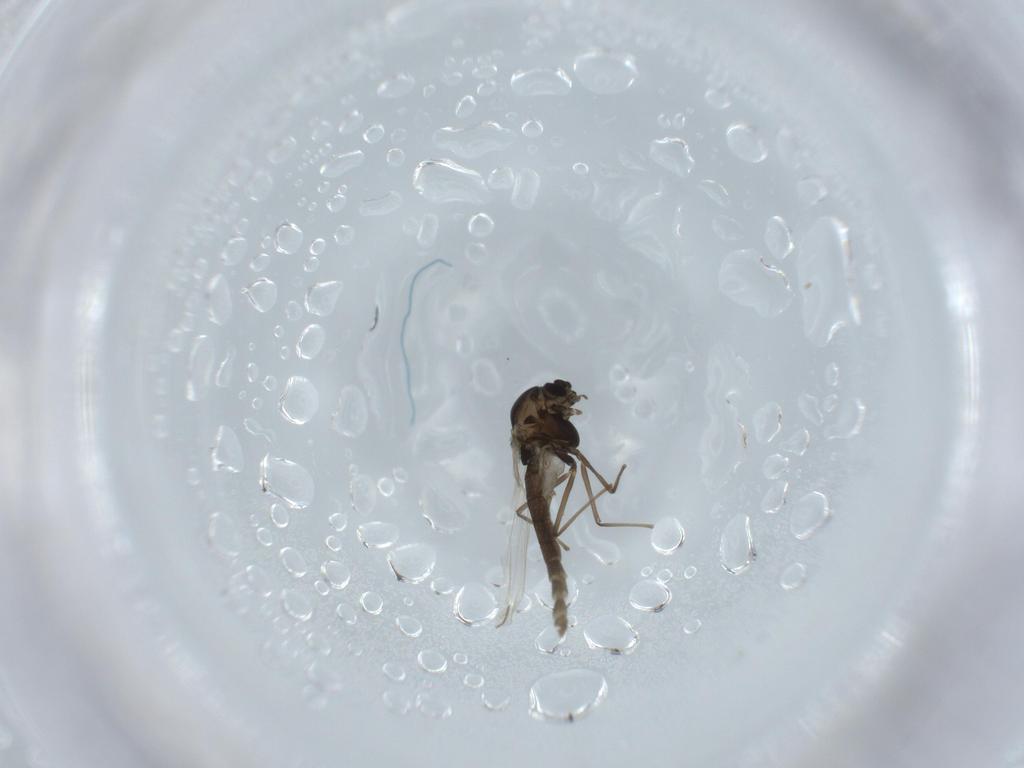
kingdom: Animalia
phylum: Arthropoda
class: Insecta
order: Diptera
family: Chironomidae
